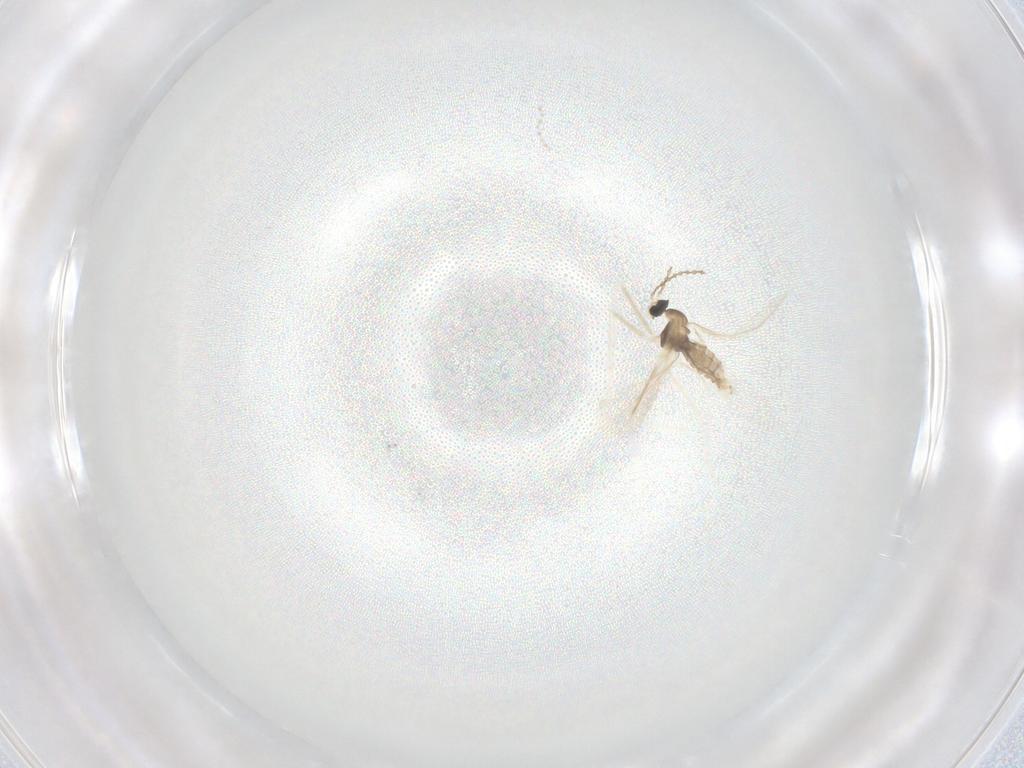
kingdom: Animalia
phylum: Arthropoda
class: Insecta
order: Diptera
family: Cecidomyiidae
